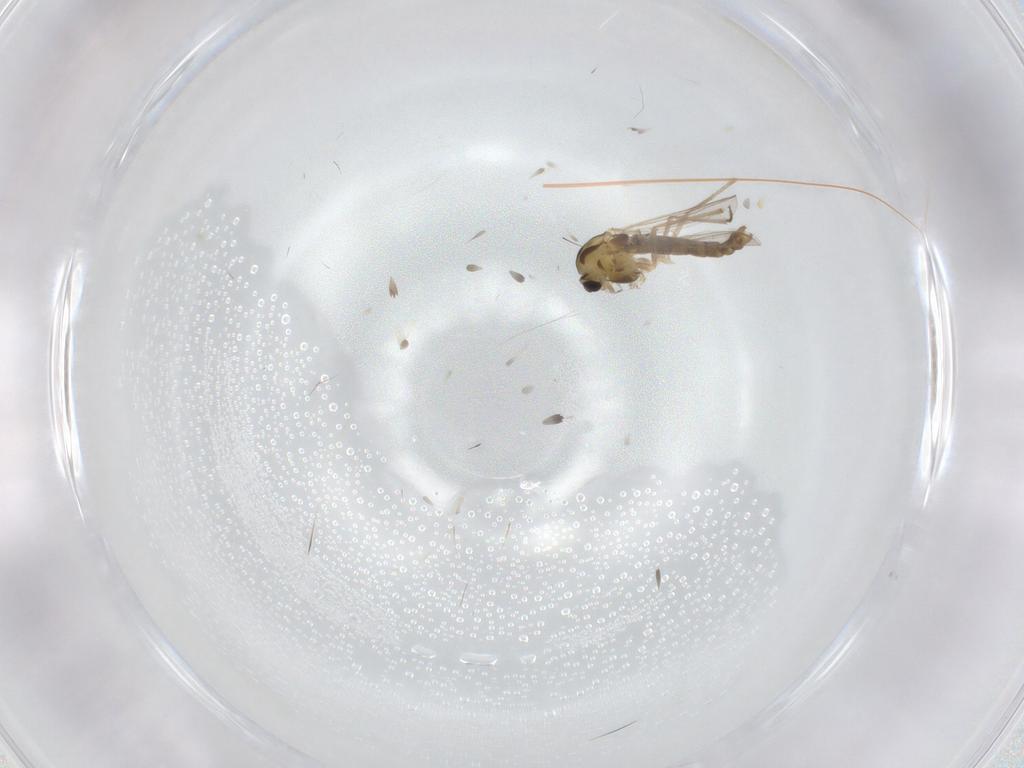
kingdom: Animalia
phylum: Arthropoda
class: Insecta
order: Diptera
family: Chironomidae
